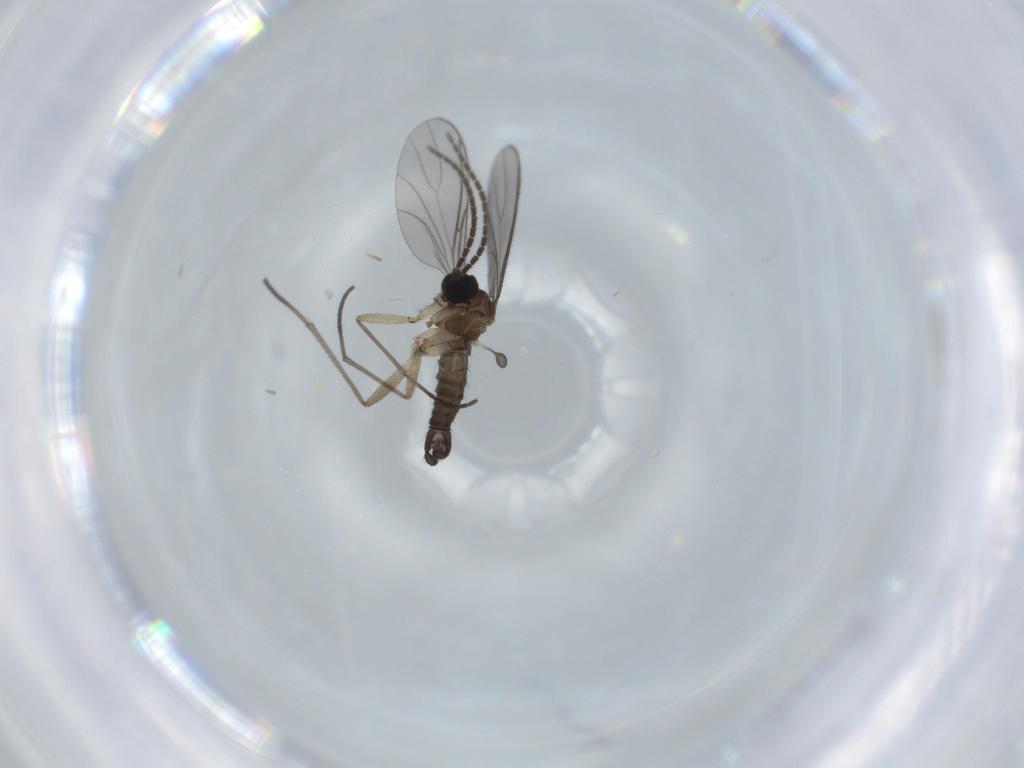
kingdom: Animalia
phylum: Arthropoda
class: Insecta
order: Diptera
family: Sciaridae
